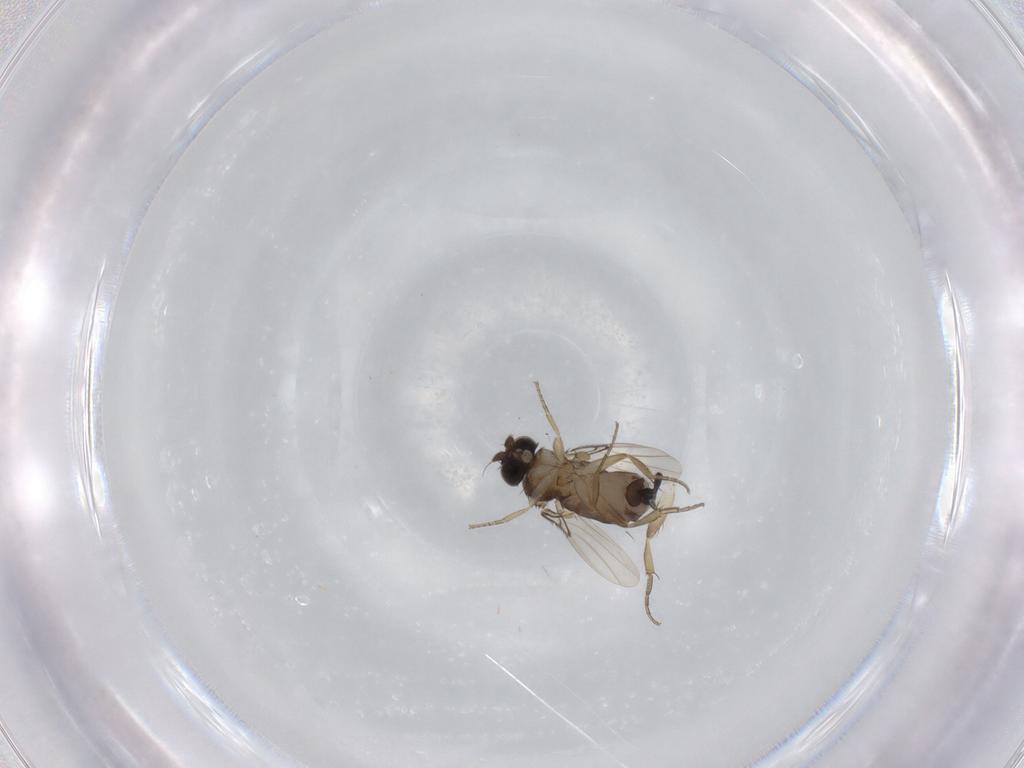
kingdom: Animalia
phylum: Arthropoda
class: Insecta
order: Diptera
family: Phoridae
